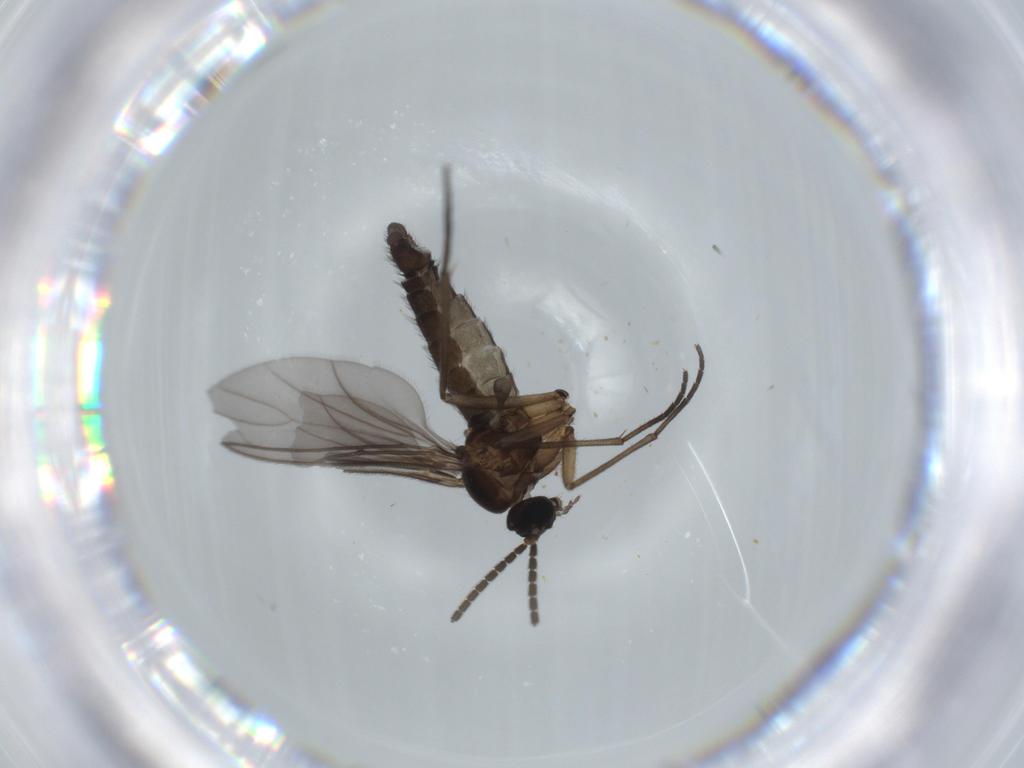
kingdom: Animalia
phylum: Arthropoda
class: Insecta
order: Diptera
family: Sciaridae
